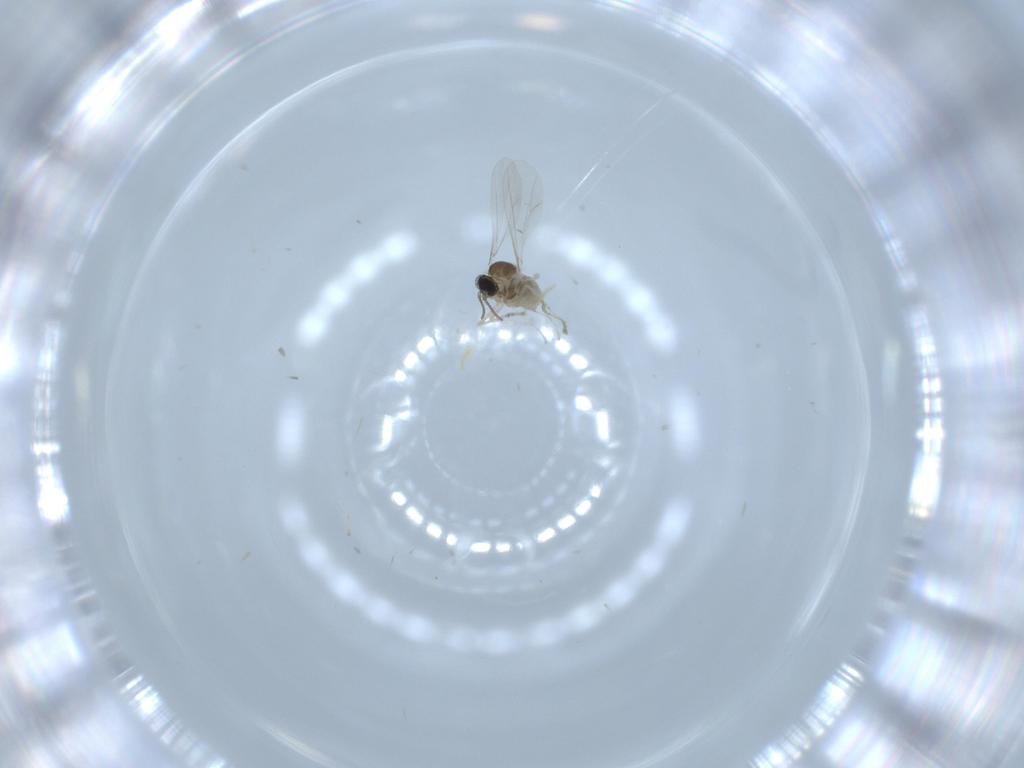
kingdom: Animalia
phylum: Arthropoda
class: Insecta
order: Diptera
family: Cecidomyiidae
